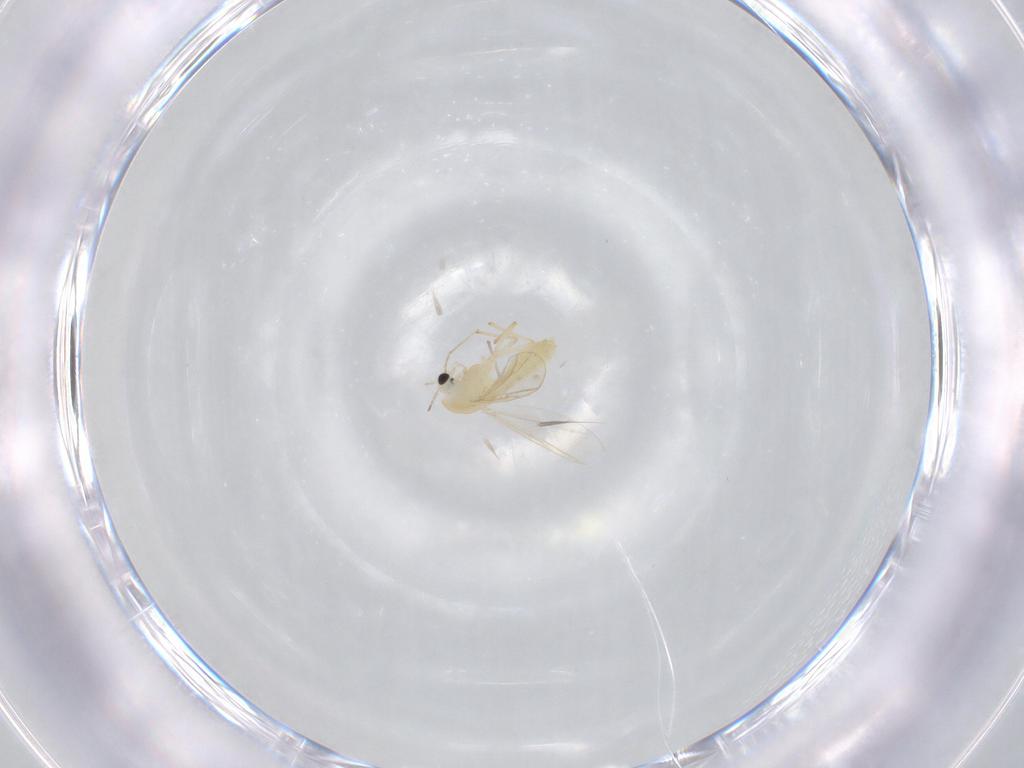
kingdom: Animalia
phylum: Arthropoda
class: Insecta
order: Diptera
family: Chironomidae
